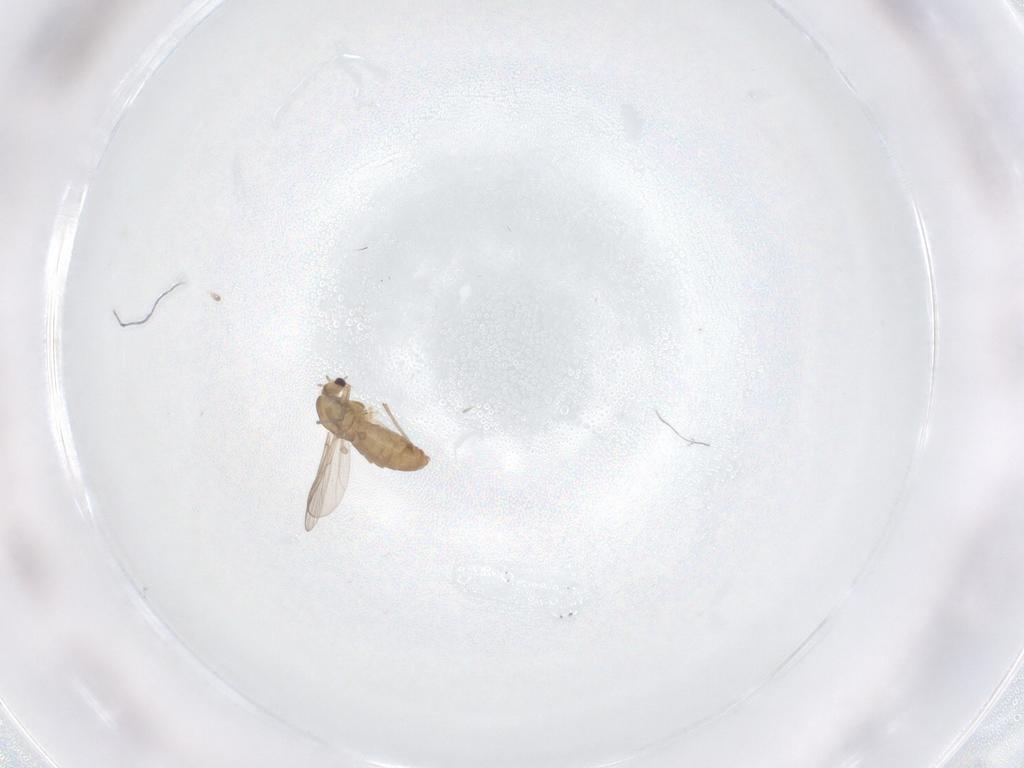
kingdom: Animalia
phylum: Arthropoda
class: Insecta
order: Diptera
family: Chironomidae
